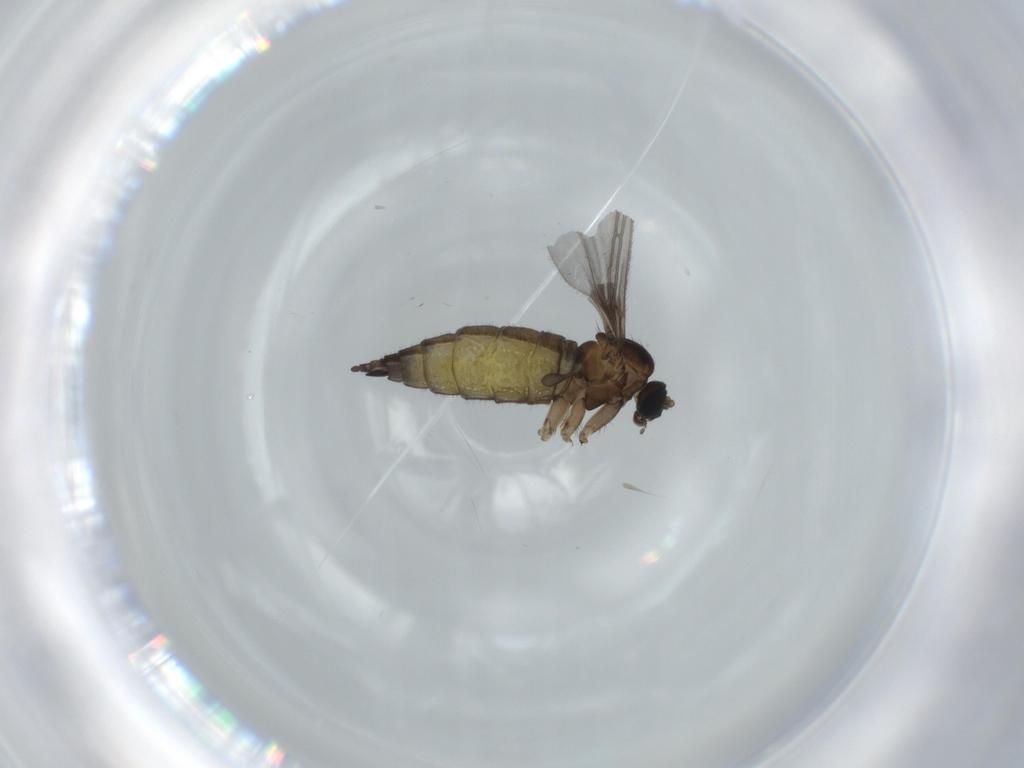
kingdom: Animalia
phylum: Arthropoda
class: Insecta
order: Diptera
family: Sciaridae
